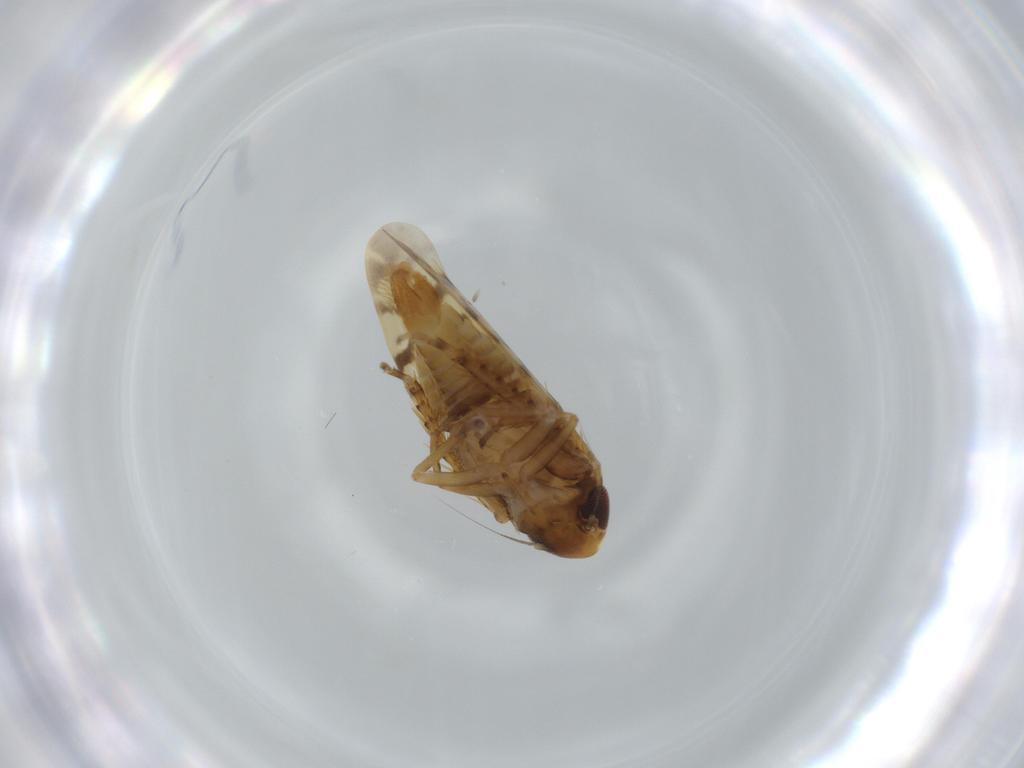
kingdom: Animalia
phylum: Arthropoda
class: Insecta
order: Hemiptera
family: Cicadellidae
